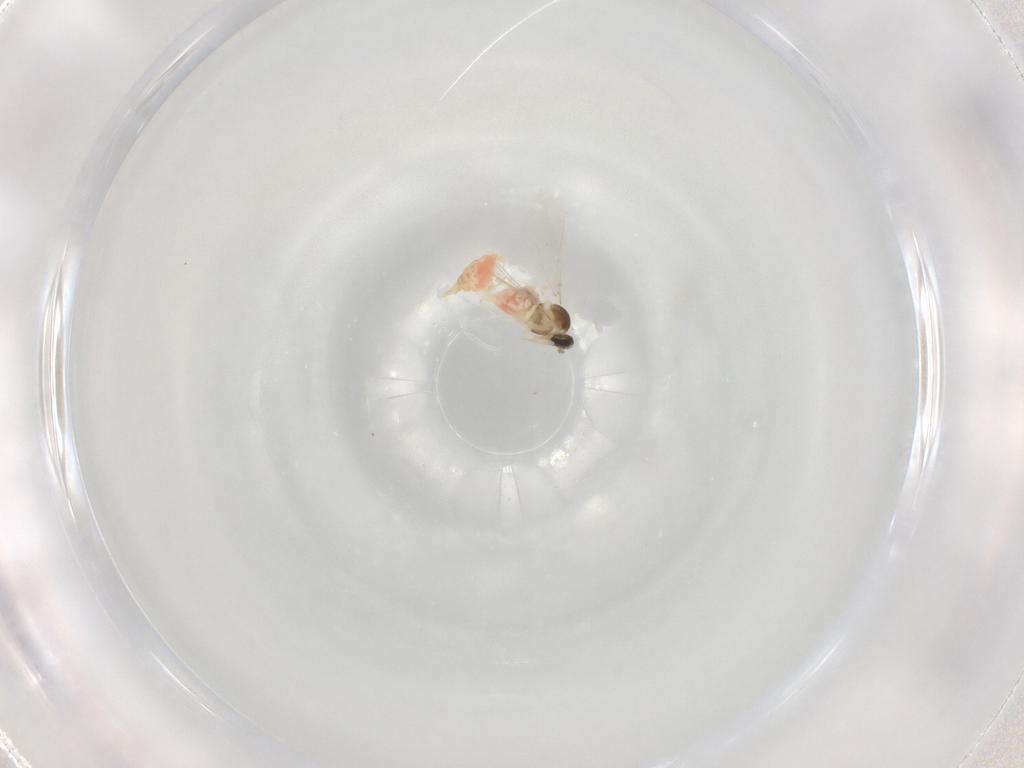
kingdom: Animalia
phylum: Arthropoda
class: Insecta
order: Diptera
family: Cecidomyiidae
